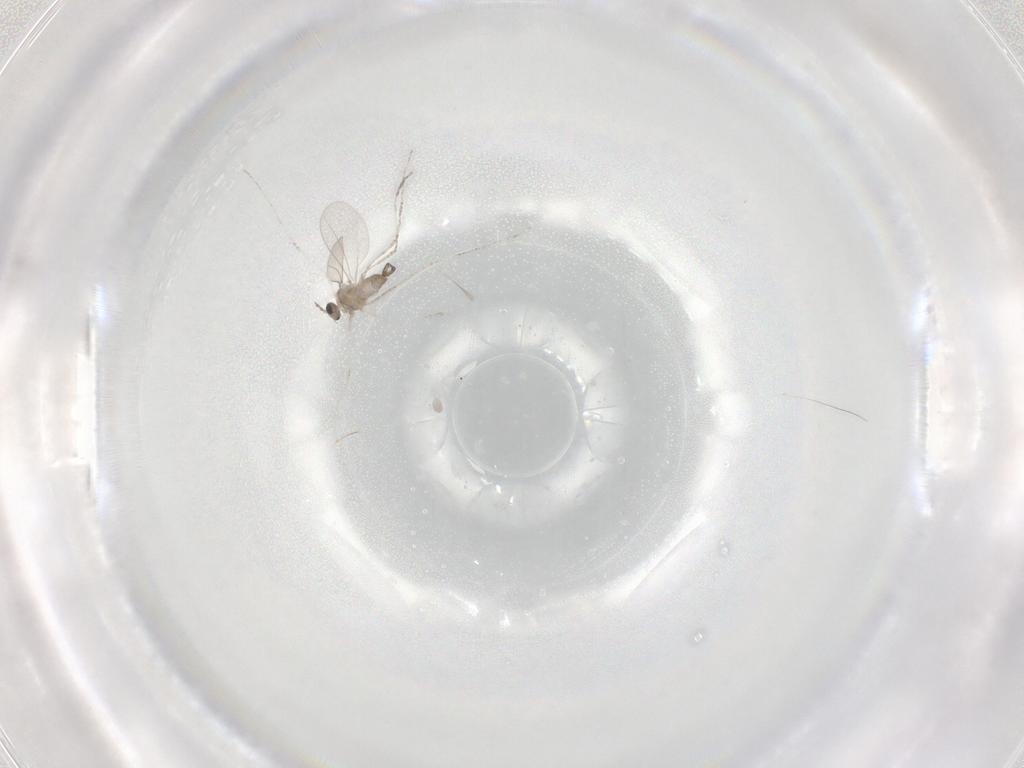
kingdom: Animalia
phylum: Arthropoda
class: Insecta
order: Diptera
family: Cecidomyiidae
